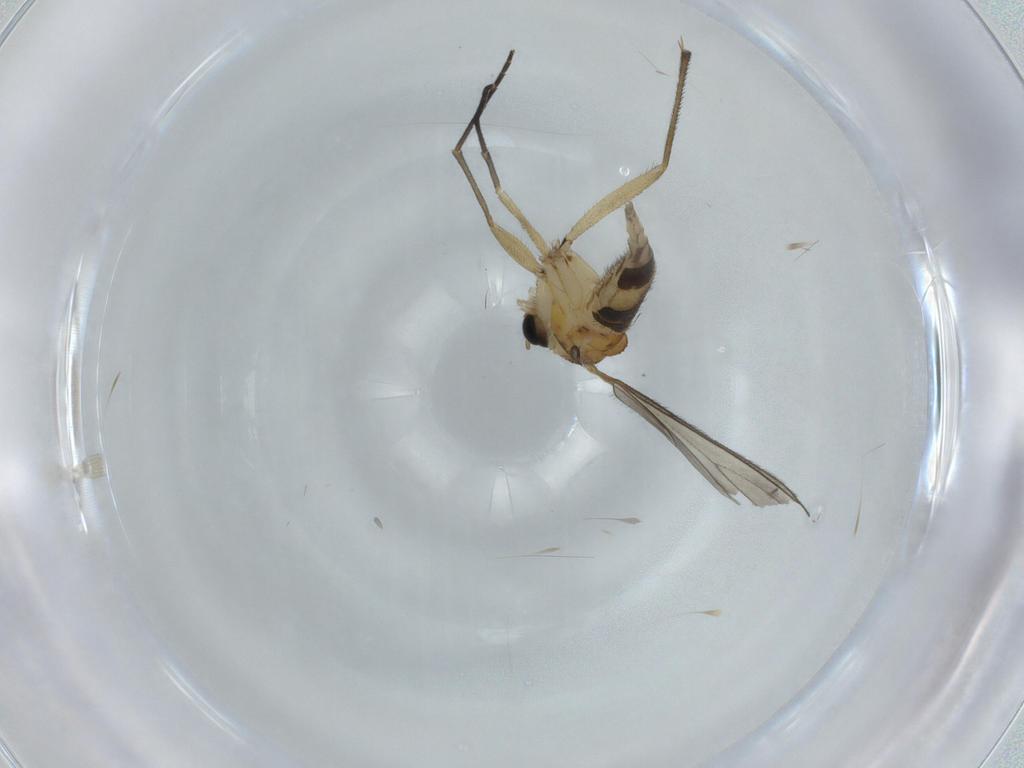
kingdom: Animalia
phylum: Arthropoda
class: Insecta
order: Diptera
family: Sciaridae
